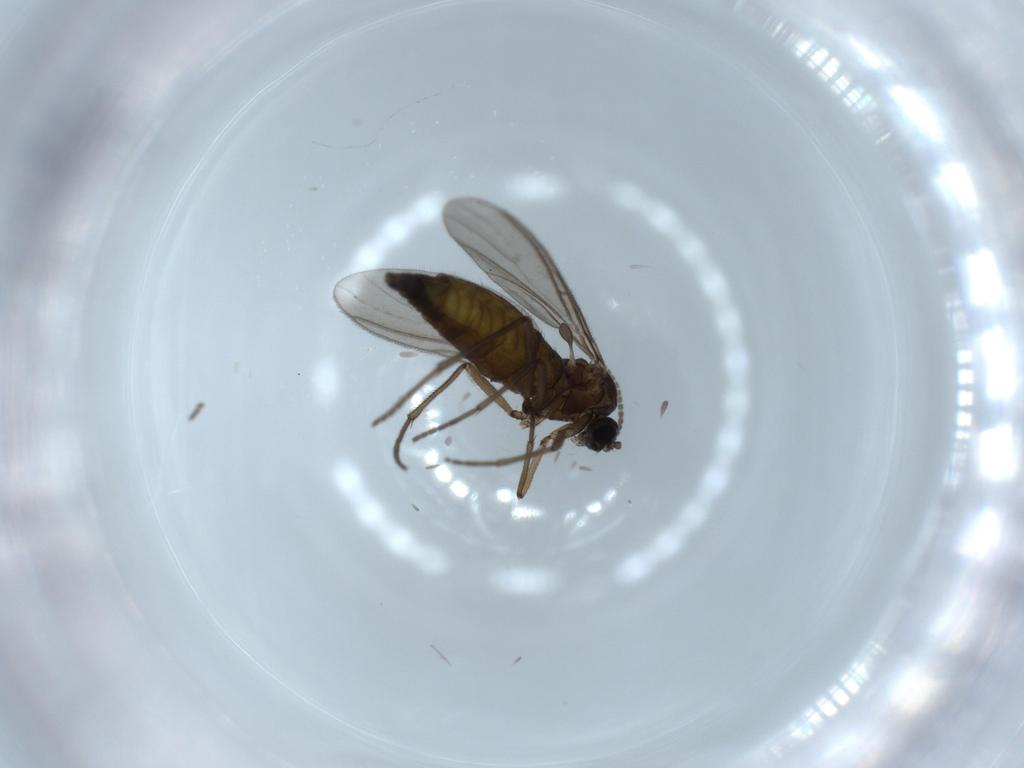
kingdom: Animalia
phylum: Arthropoda
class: Insecta
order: Diptera
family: Sciaridae
